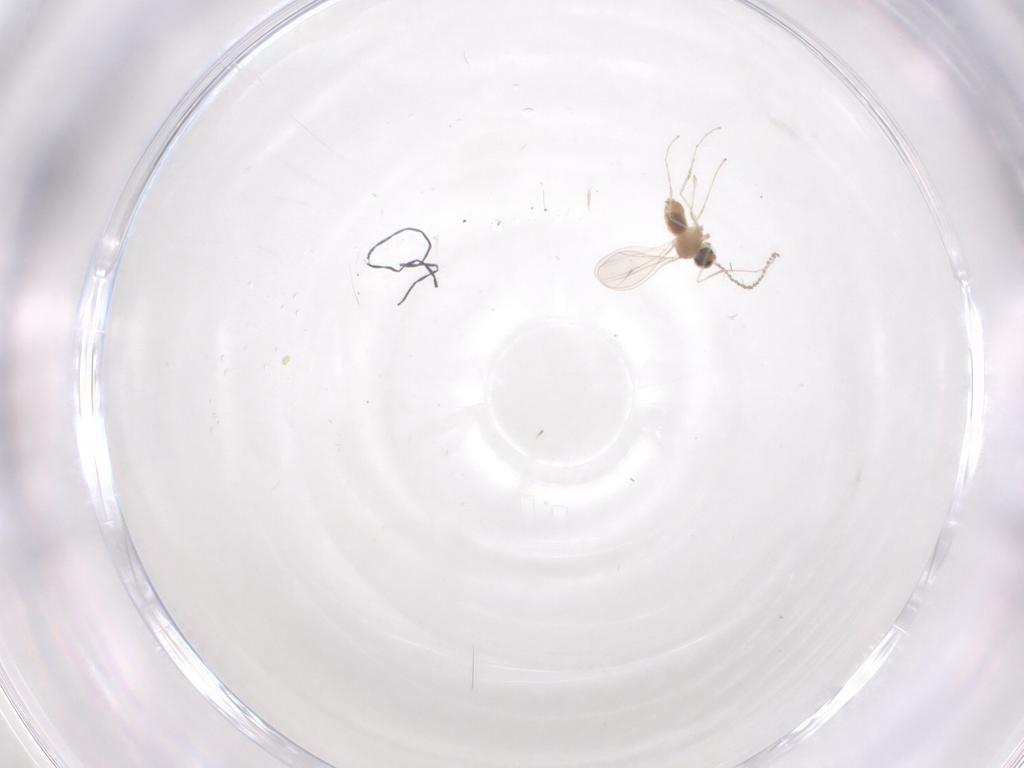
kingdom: Animalia
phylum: Arthropoda
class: Insecta
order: Diptera
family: Cecidomyiidae
